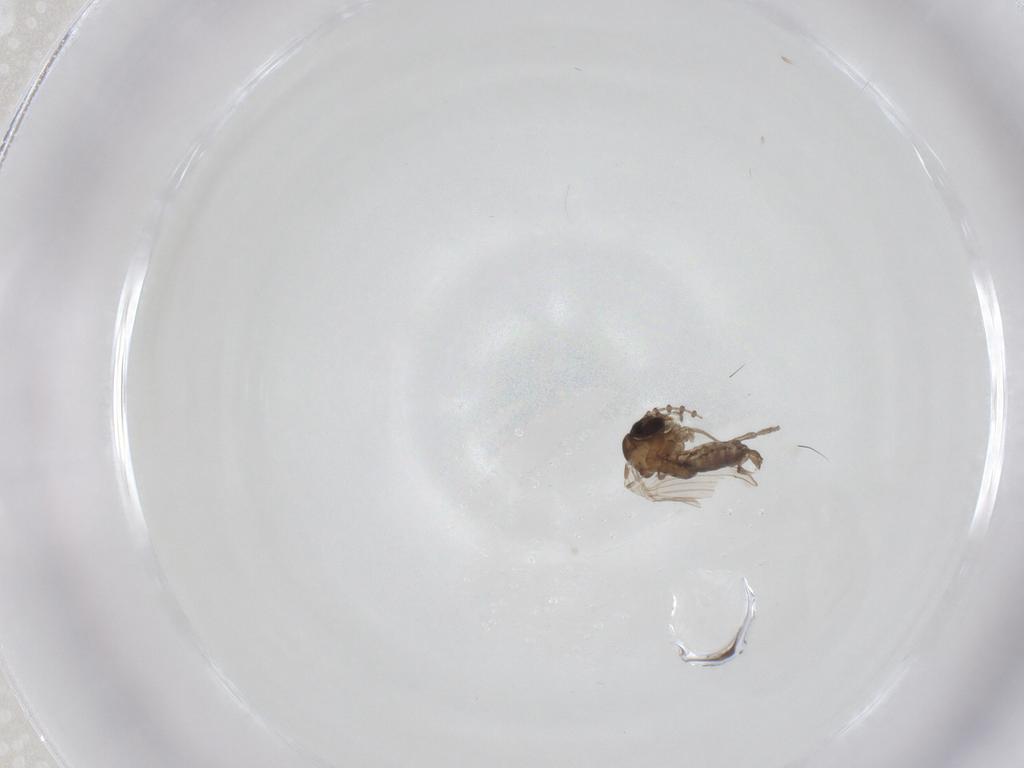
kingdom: Animalia
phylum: Arthropoda
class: Insecta
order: Diptera
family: Psychodidae
